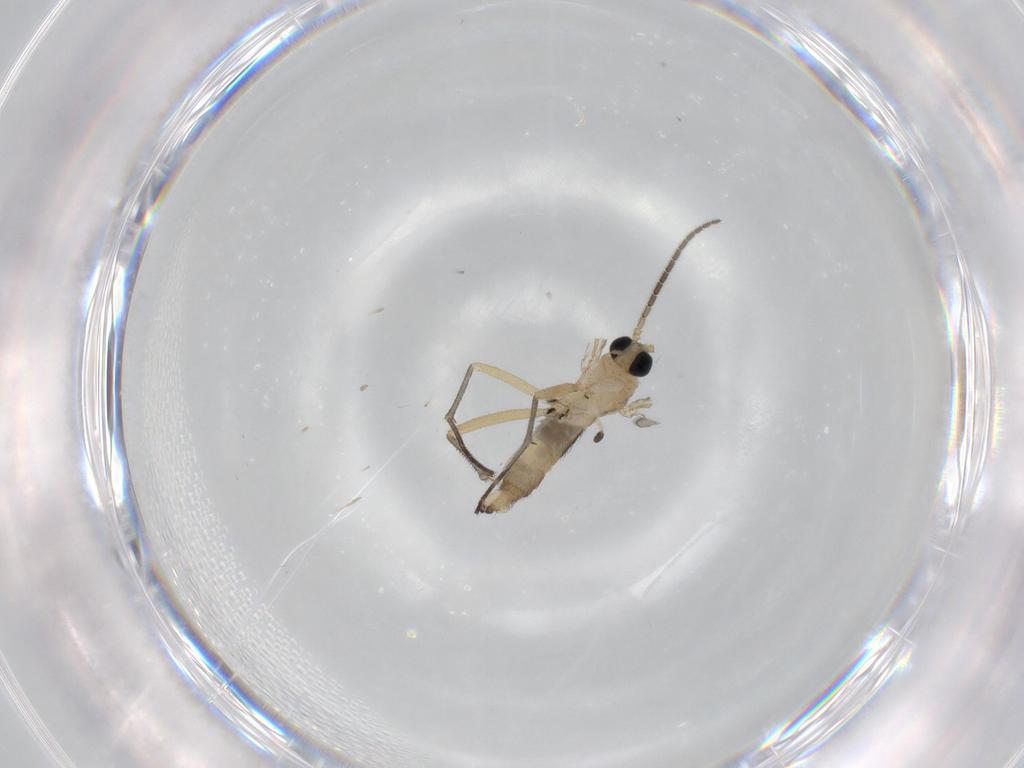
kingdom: Animalia
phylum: Arthropoda
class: Insecta
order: Diptera
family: Sciaridae
